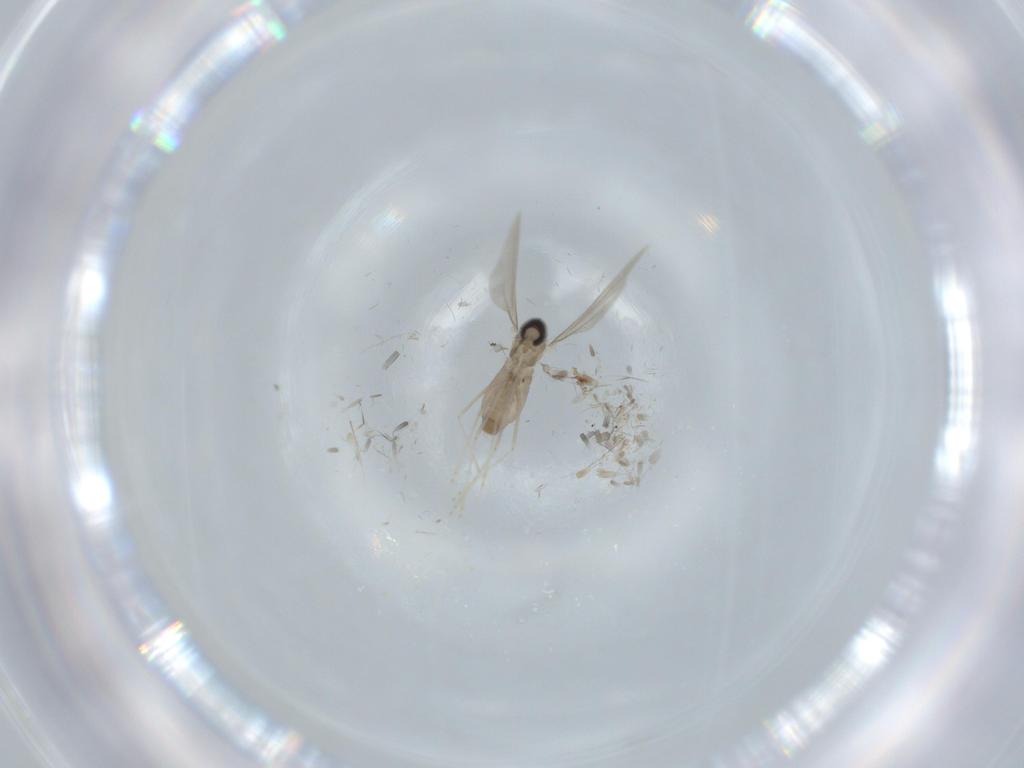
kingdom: Animalia
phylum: Arthropoda
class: Insecta
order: Diptera
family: Cecidomyiidae
